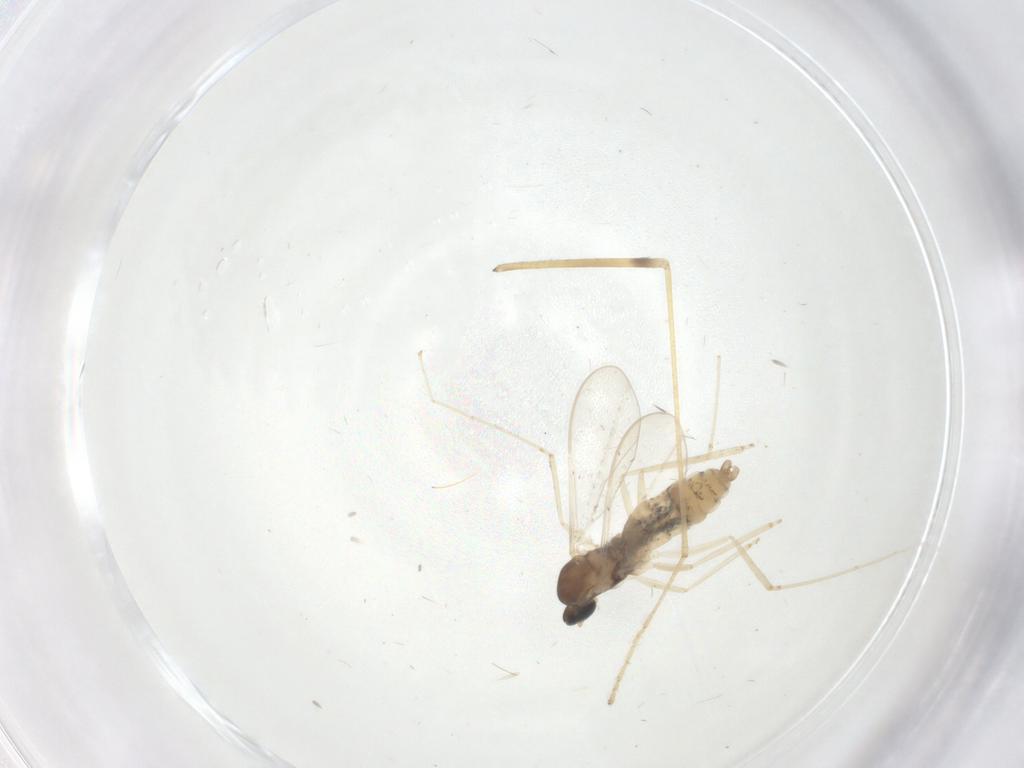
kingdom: Animalia
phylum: Arthropoda
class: Insecta
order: Diptera
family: Cecidomyiidae
